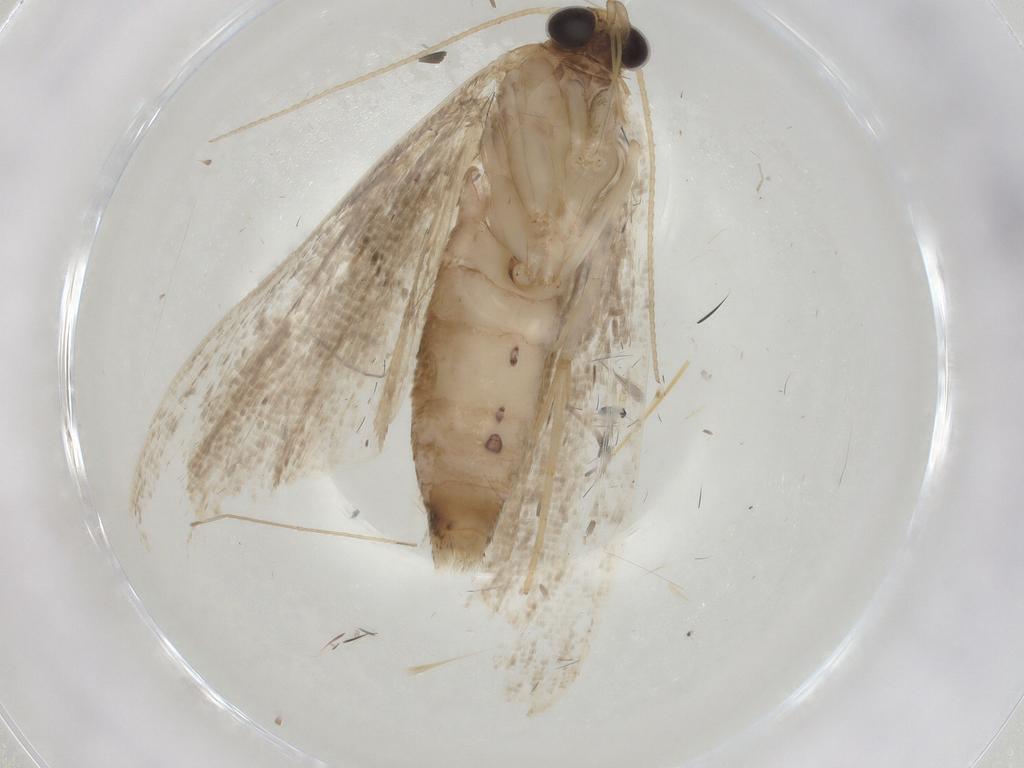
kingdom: Animalia
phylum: Arthropoda
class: Insecta
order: Lepidoptera
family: Erebidae
